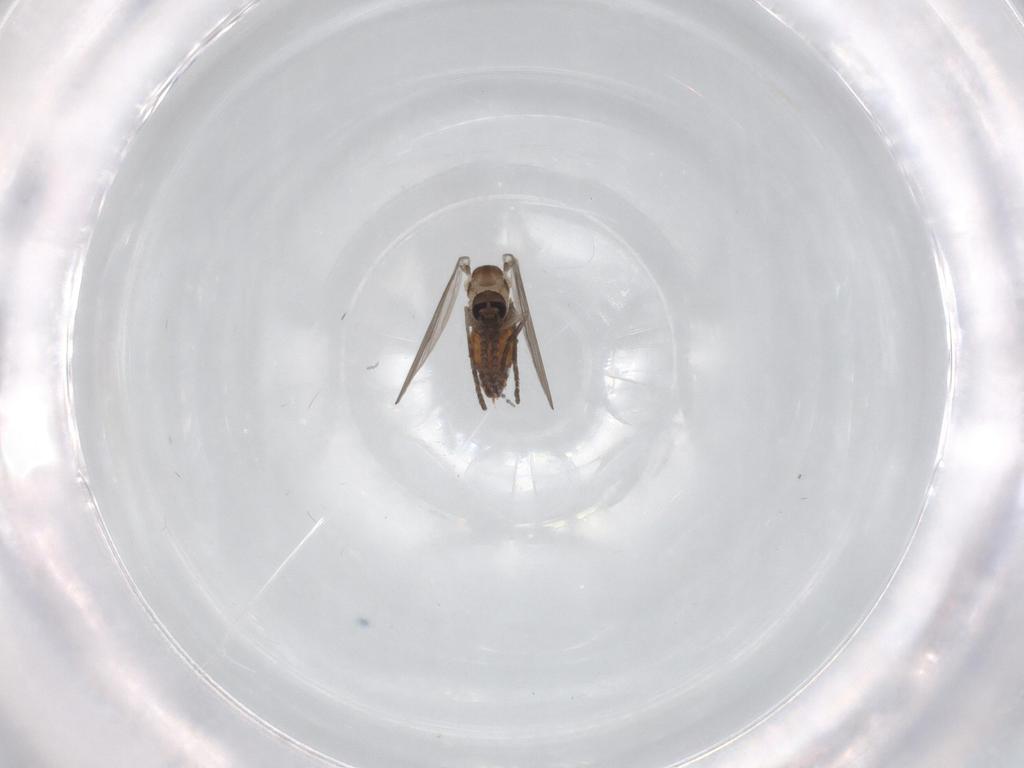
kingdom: Animalia
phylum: Arthropoda
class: Insecta
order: Diptera
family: Psychodidae
